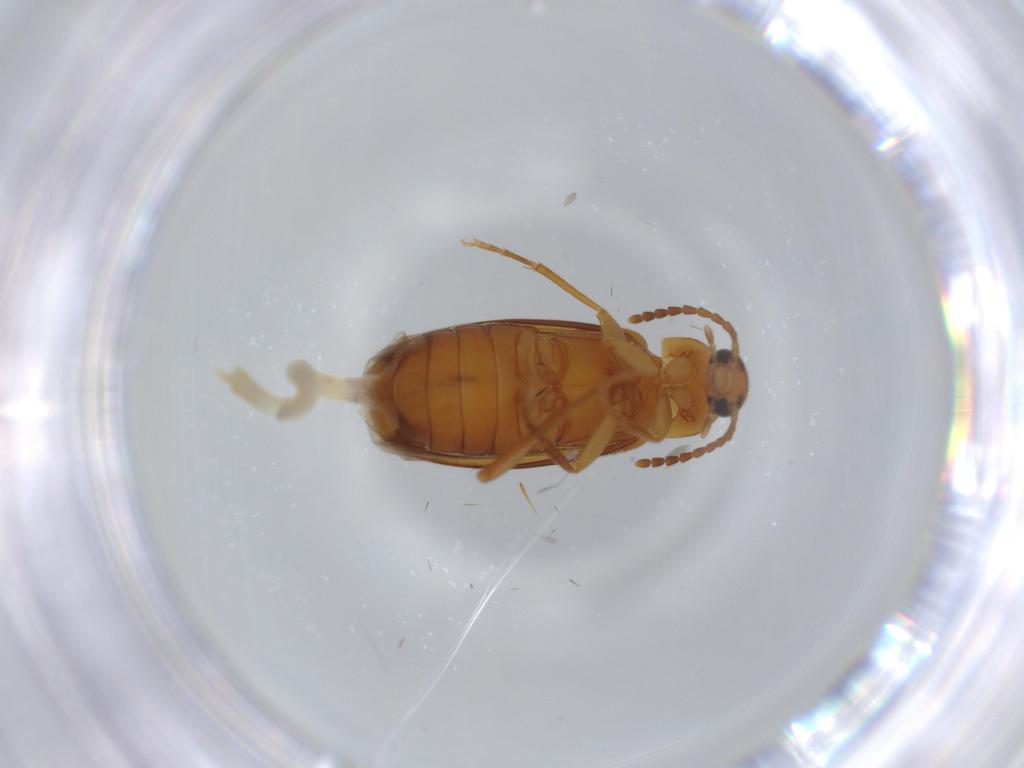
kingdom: Animalia
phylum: Arthropoda
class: Insecta
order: Coleoptera
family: Scraptiidae
